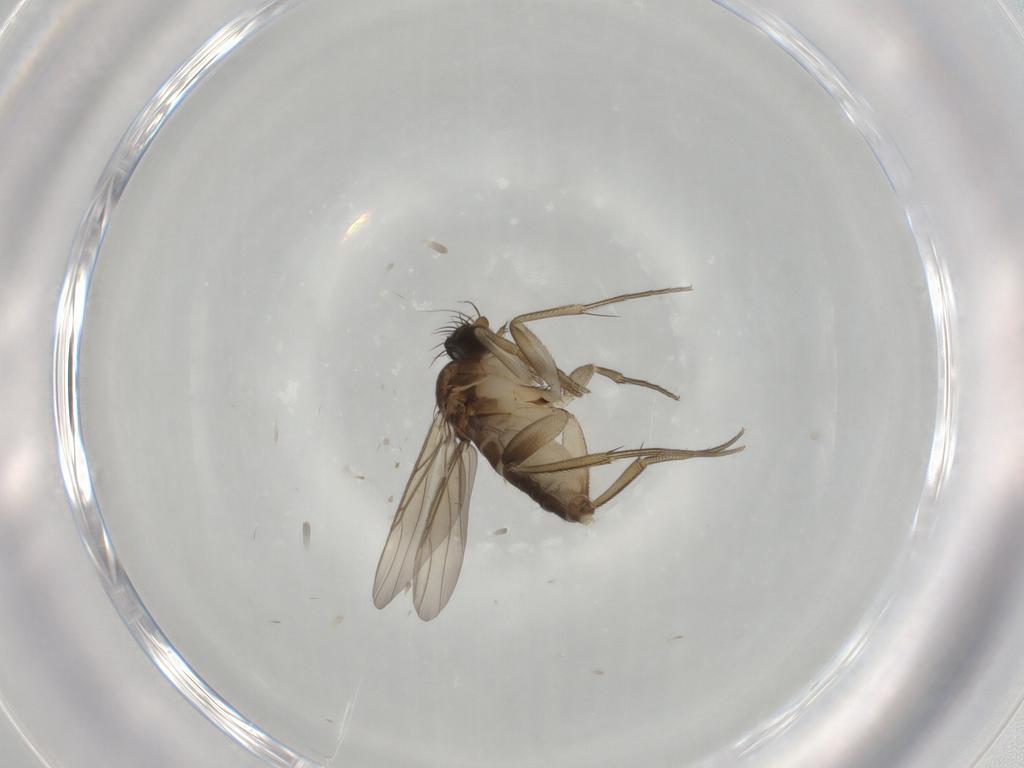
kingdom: Animalia
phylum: Arthropoda
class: Insecta
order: Diptera
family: Phoridae
